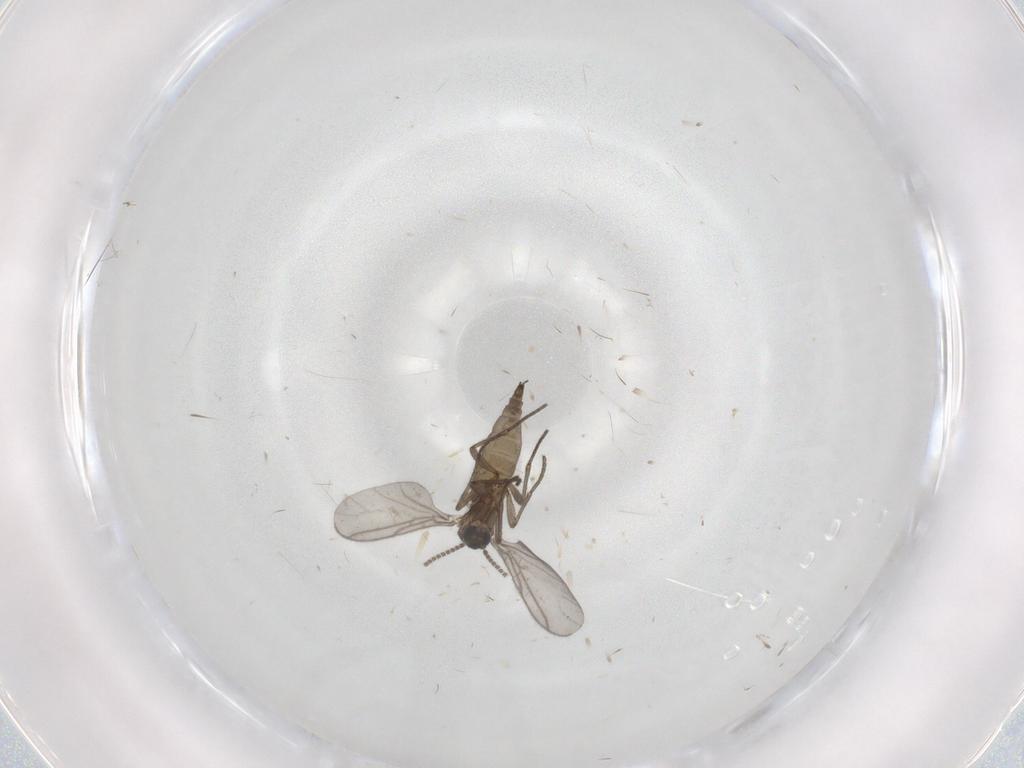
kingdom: Animalia
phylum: Arthropoda
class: Insecta
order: Diptera
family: Sciaridae
